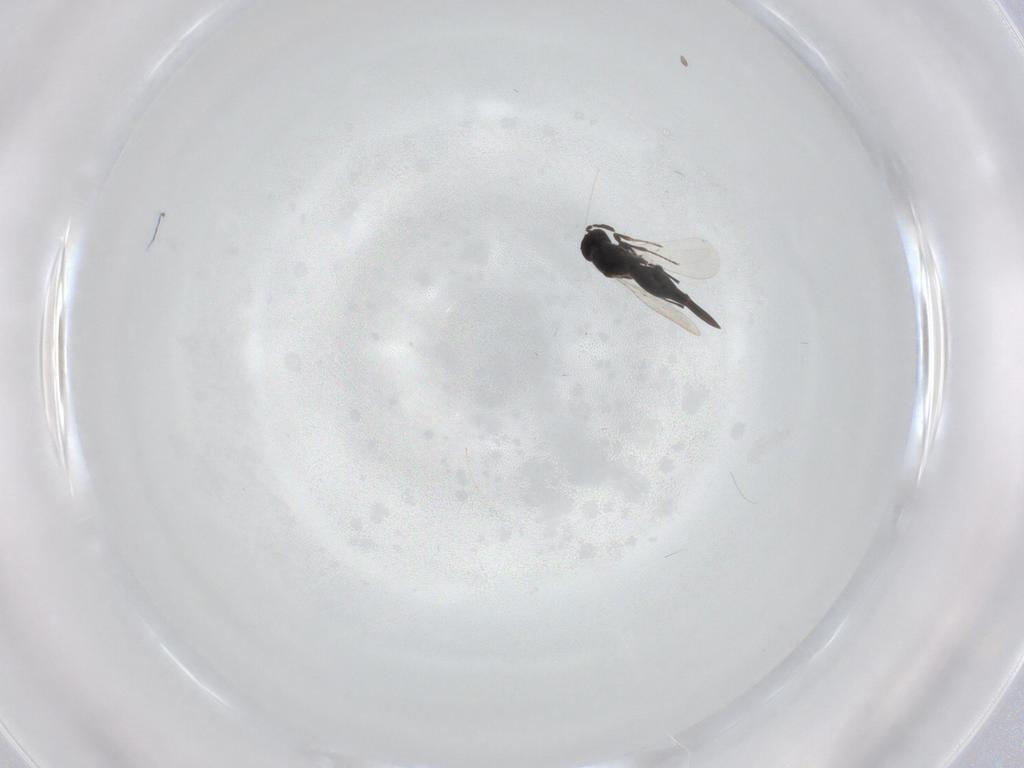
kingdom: Animalia
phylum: Arthropoda
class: Insecta
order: Diptera
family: Mythicomyiidae
